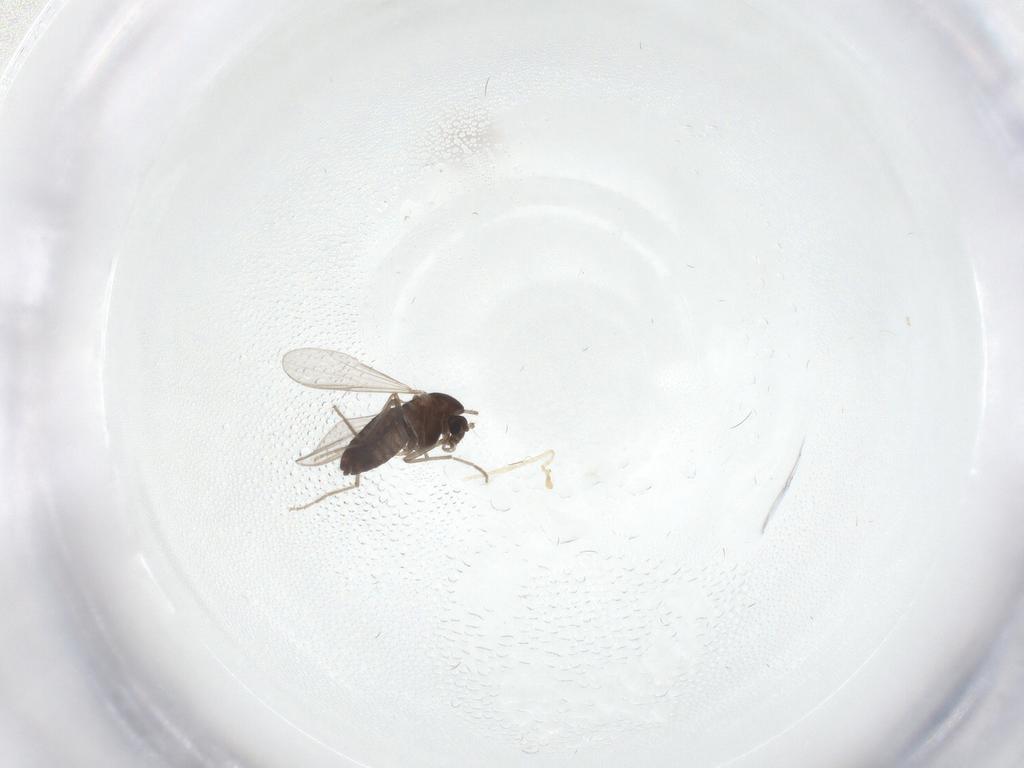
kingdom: Animalia
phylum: Arthropoda
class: Insecta
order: Diptera
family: Chironomidae
